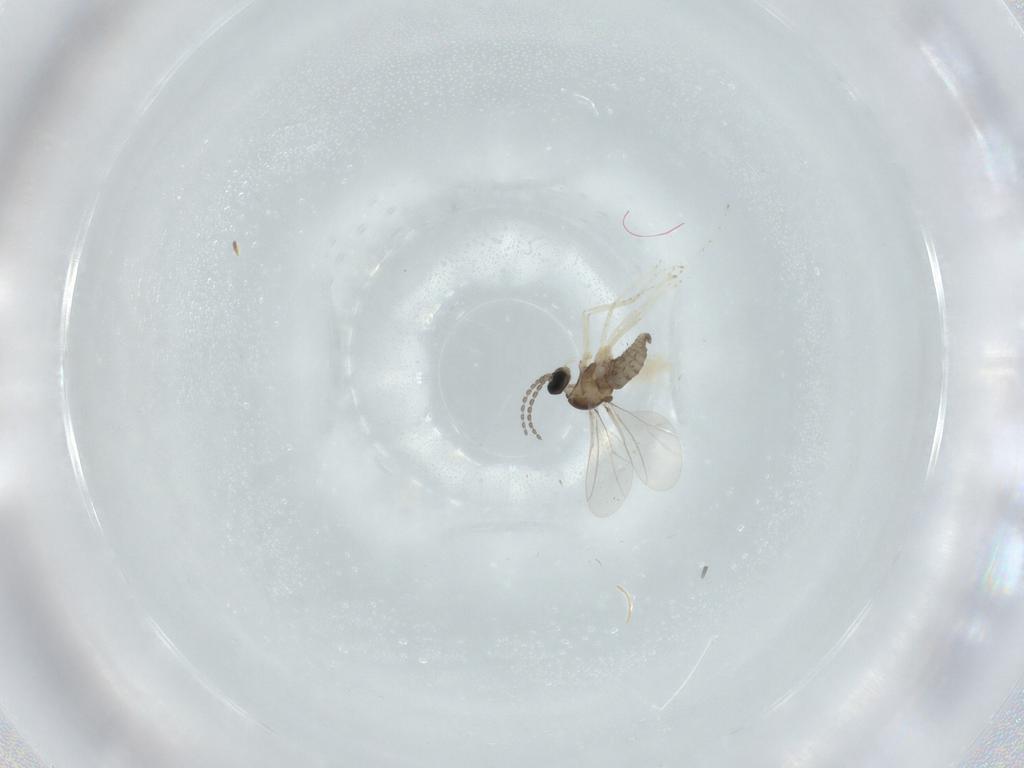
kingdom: Animalia
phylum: Arthropoda
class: Insecta
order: Diptera
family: Cecidomyiidae
